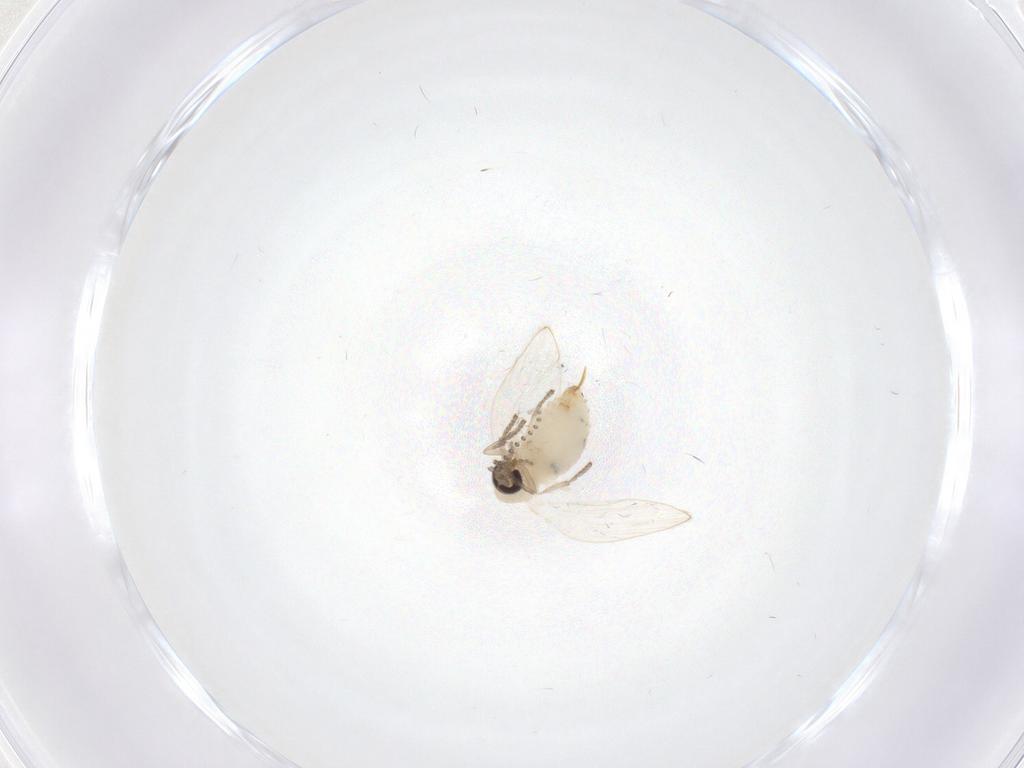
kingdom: Animalia
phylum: Arthropoda
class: Insecta
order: Diptera
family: Psychodidae
